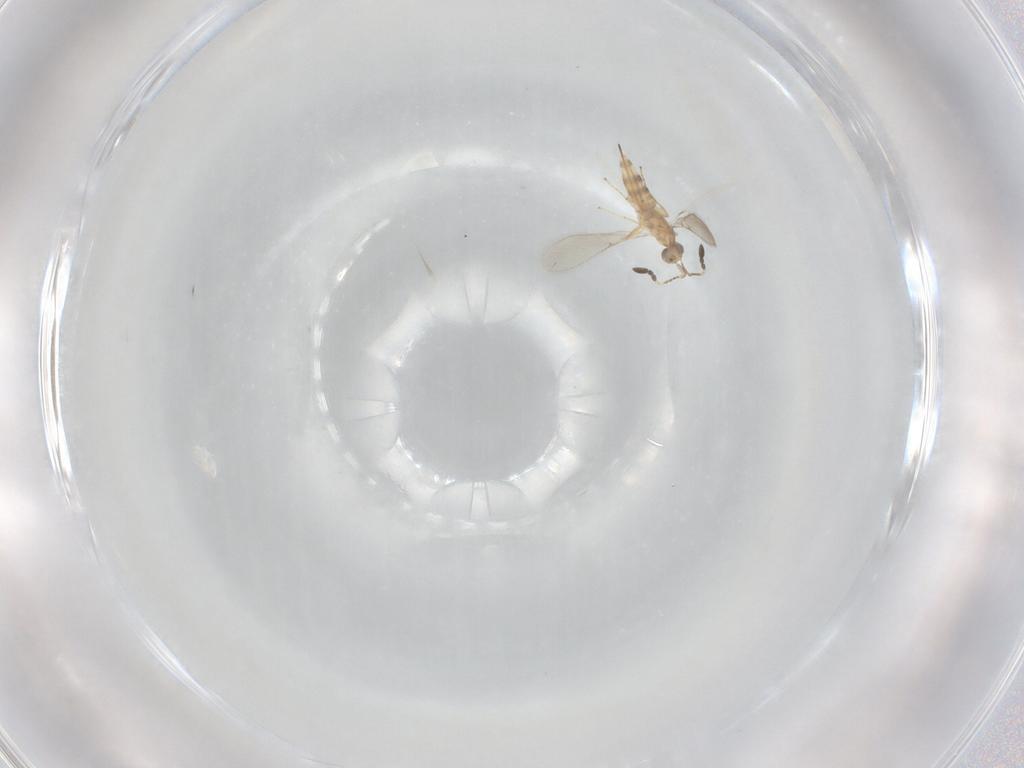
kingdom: Animalia
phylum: Arthropoda
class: Insecta
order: Hymenoptera
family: Mymaridae
